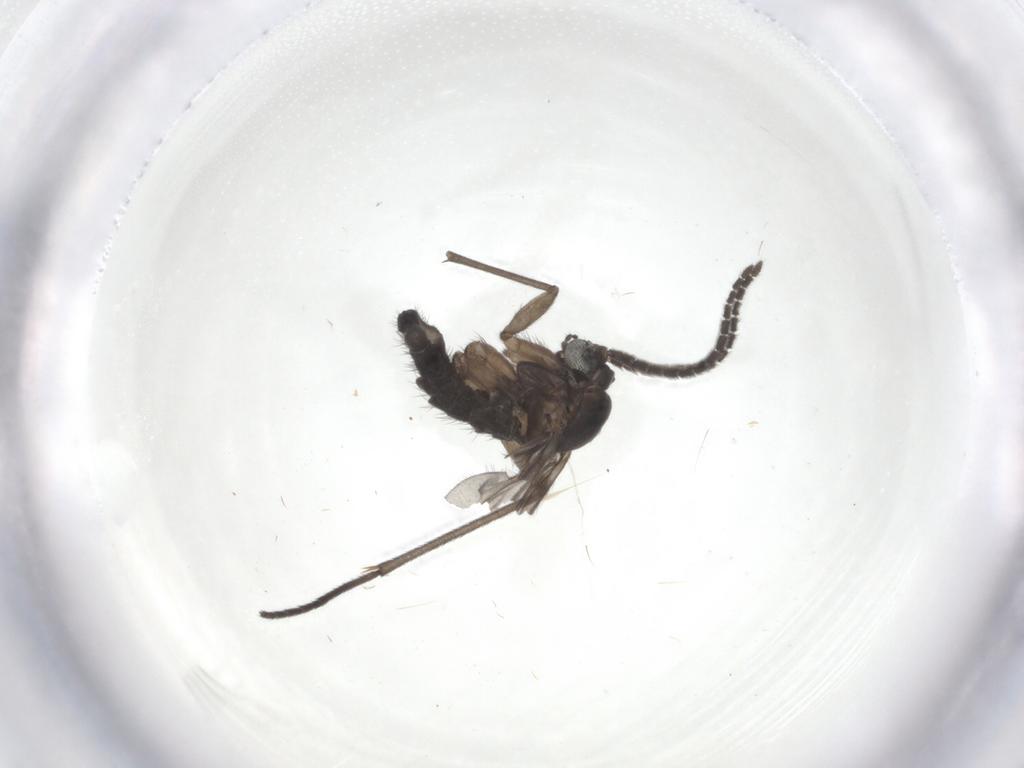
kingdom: Animalia
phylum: Arthropoda
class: Insecta
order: Diptera
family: Sciaridae
